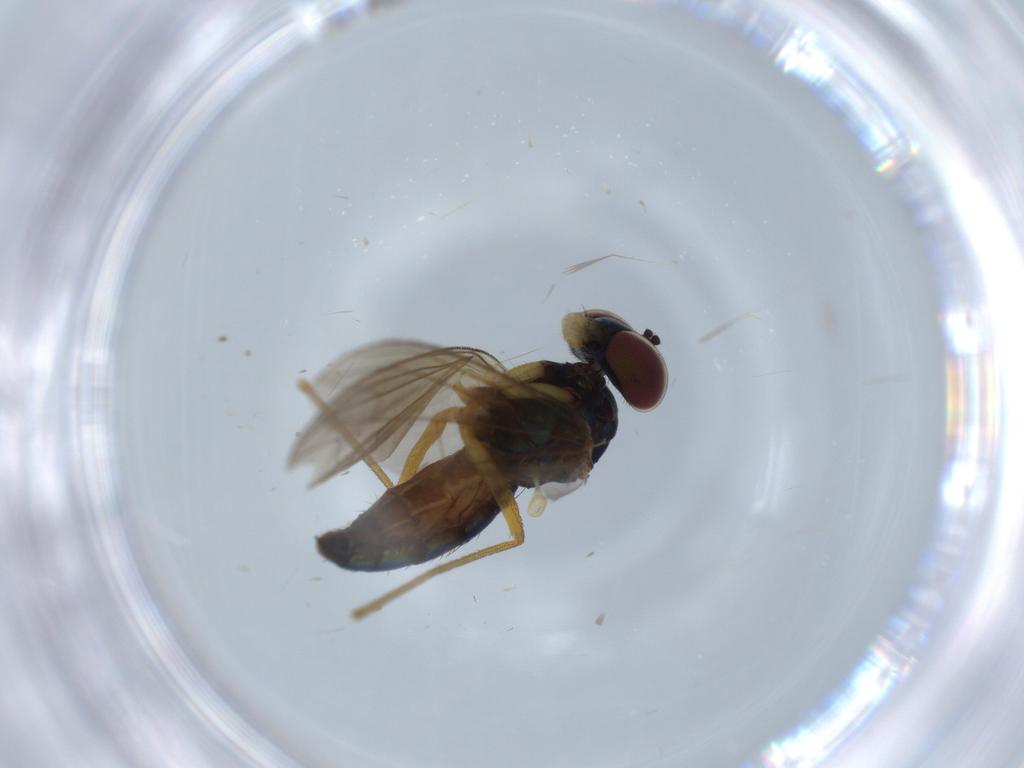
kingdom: Animalia
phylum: Arthropoda
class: Insecta
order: Diptera
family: Dolichopodidae
